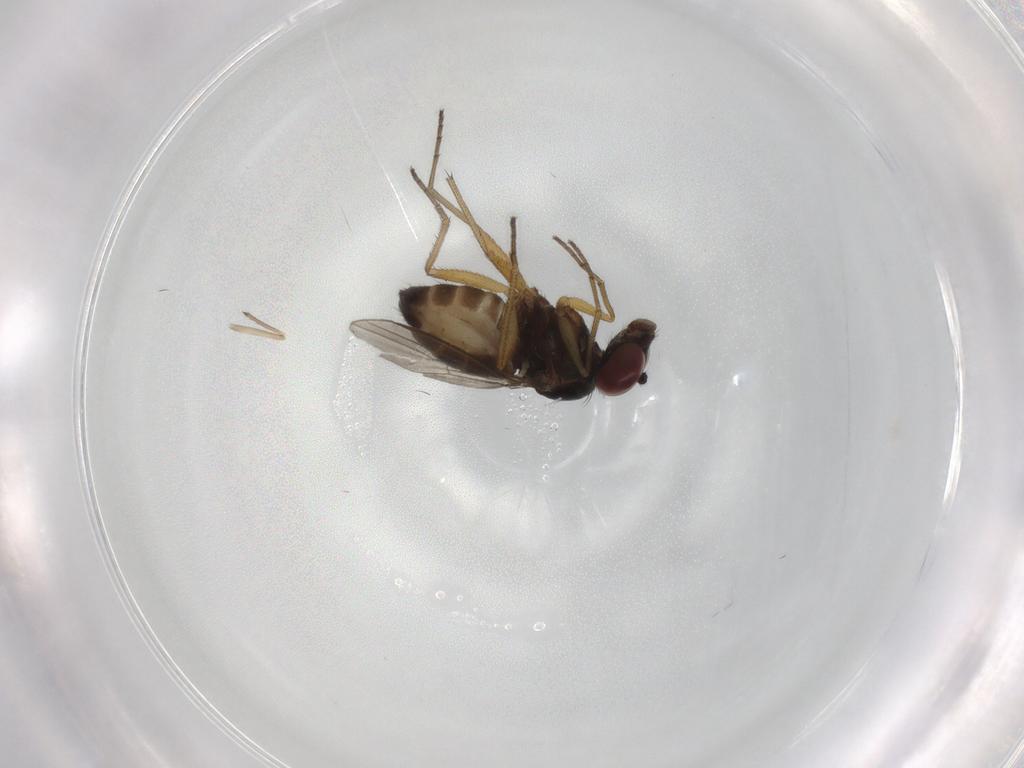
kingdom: Animalia
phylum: Arthropoda
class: Insecta
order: Diptera
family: Dolichopodidae
